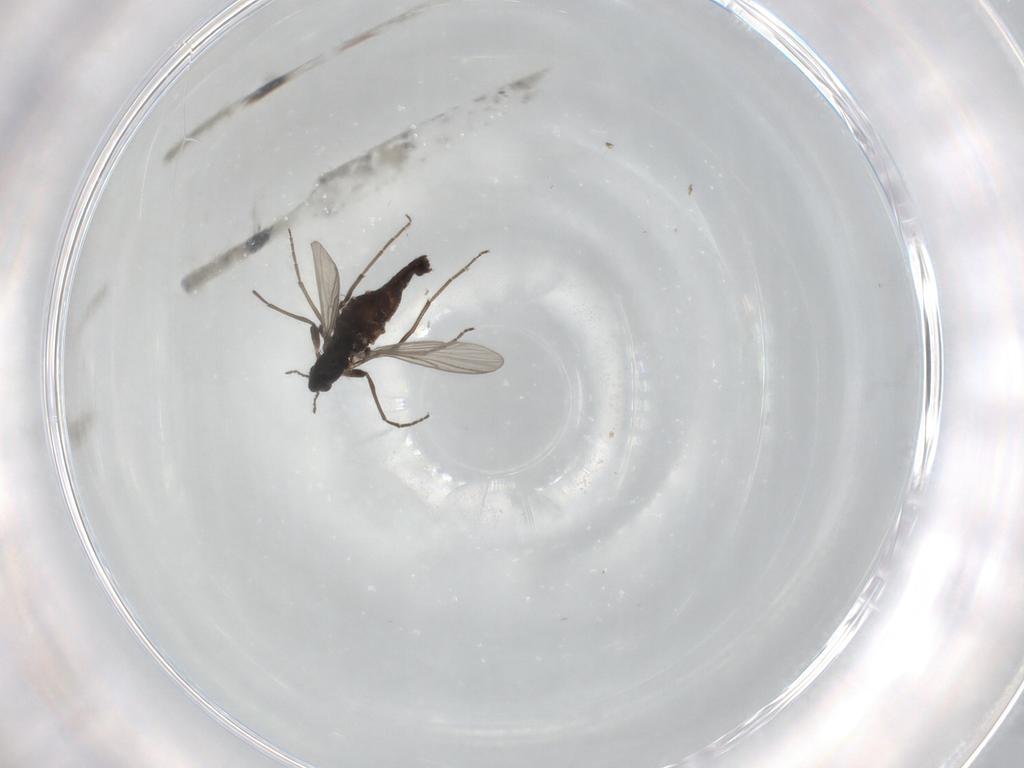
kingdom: Animalia
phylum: Arthropoda
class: Insecta
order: Diptera
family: Chironomidae
